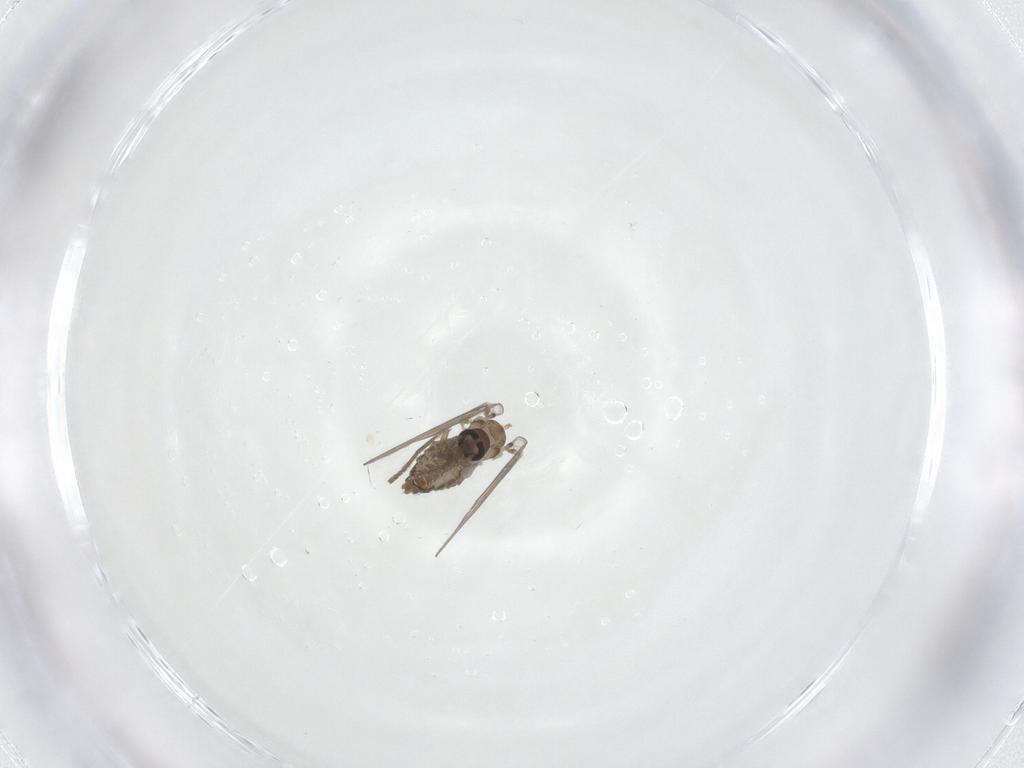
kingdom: Animalia
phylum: Arthropoda
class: Insecta
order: Diptera
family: Psychodidae
